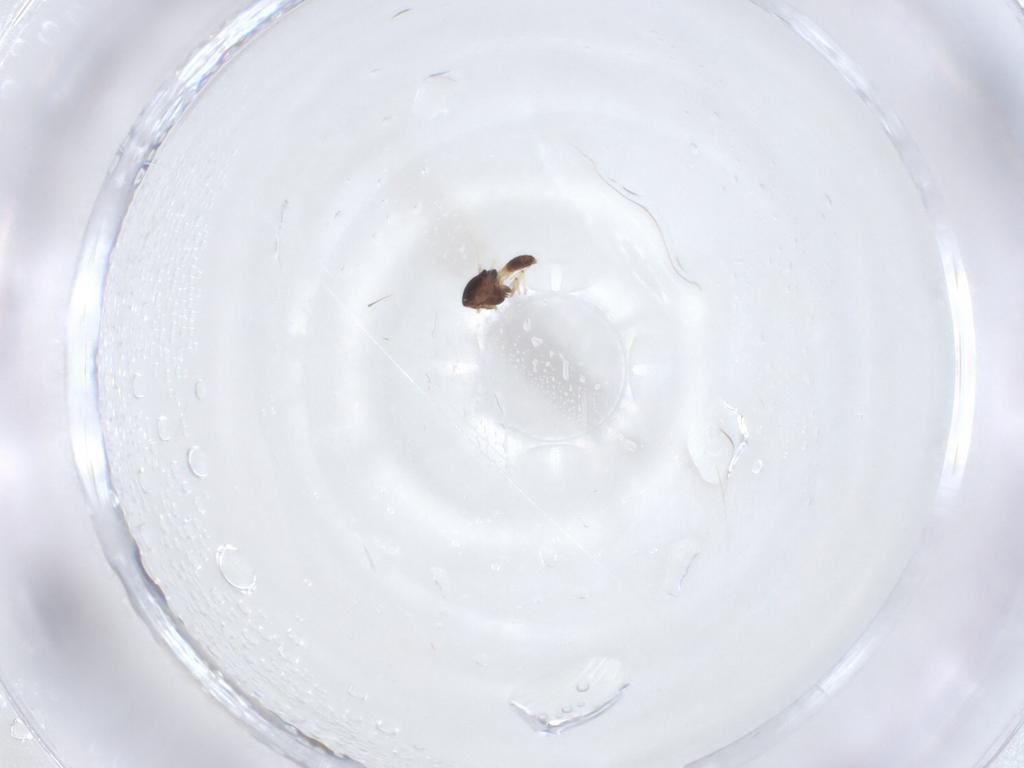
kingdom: Animalia
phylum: Arthropoda
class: Insecta
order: Diptera
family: Chironomidae
